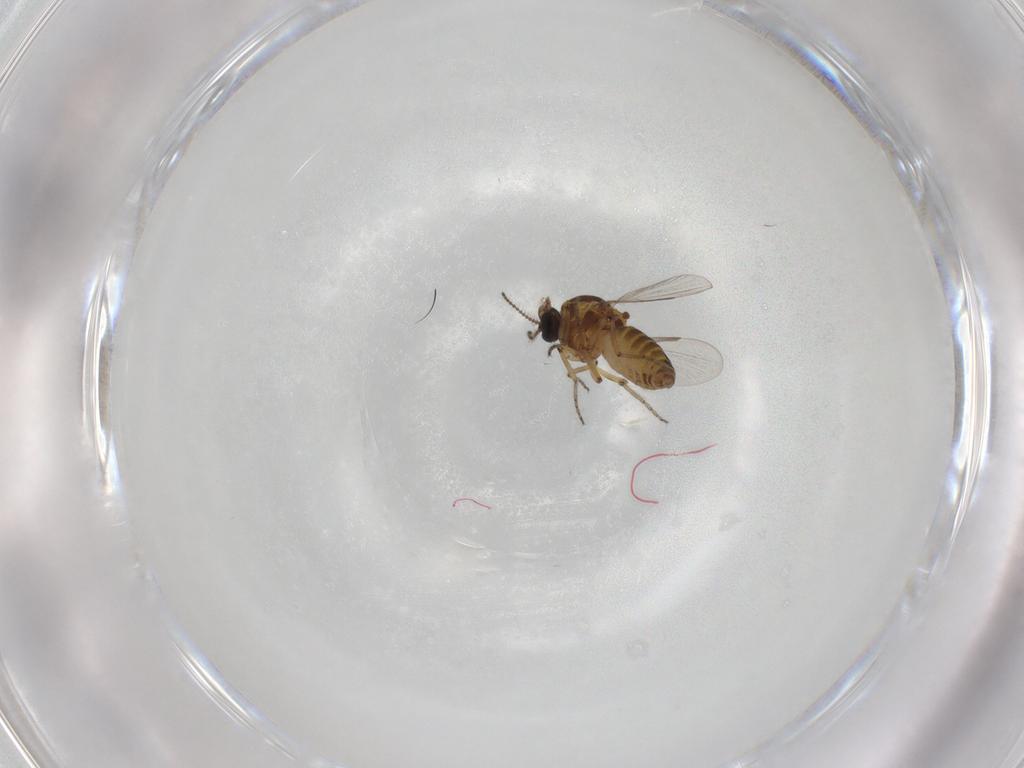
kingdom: Animalia
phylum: Arthropoda
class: Insecta
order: Diptera
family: Ceratopogonidae
